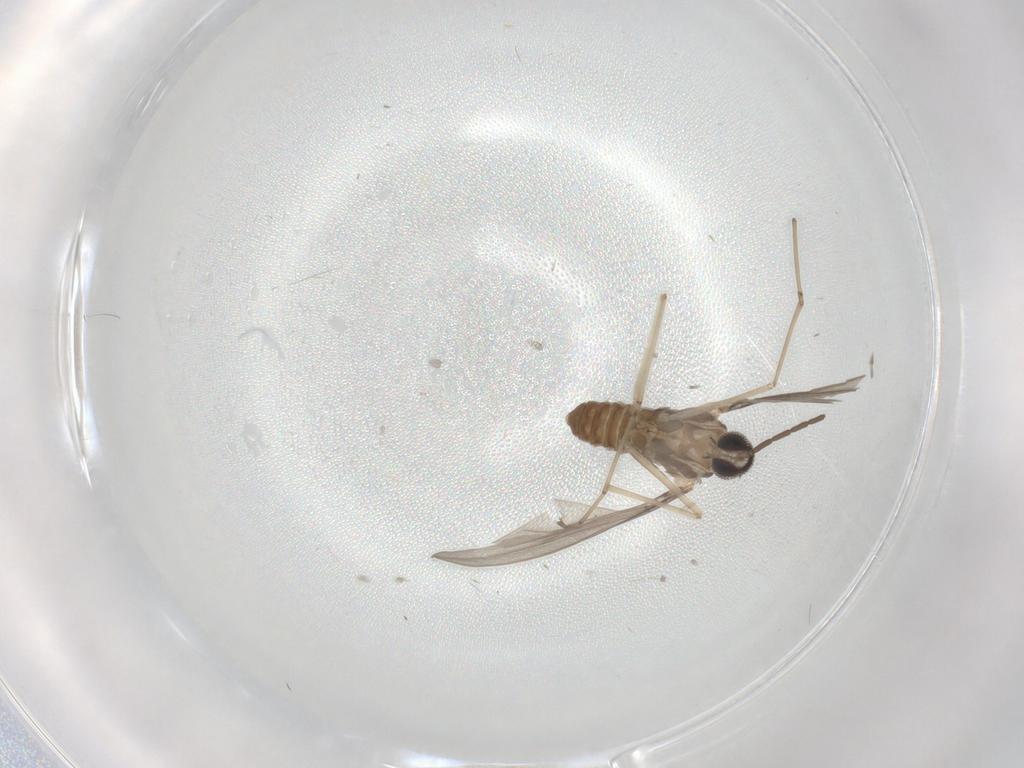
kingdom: Animalia
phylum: Arthropoda
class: Insecta
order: Diptera
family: Cecidomyiidae
